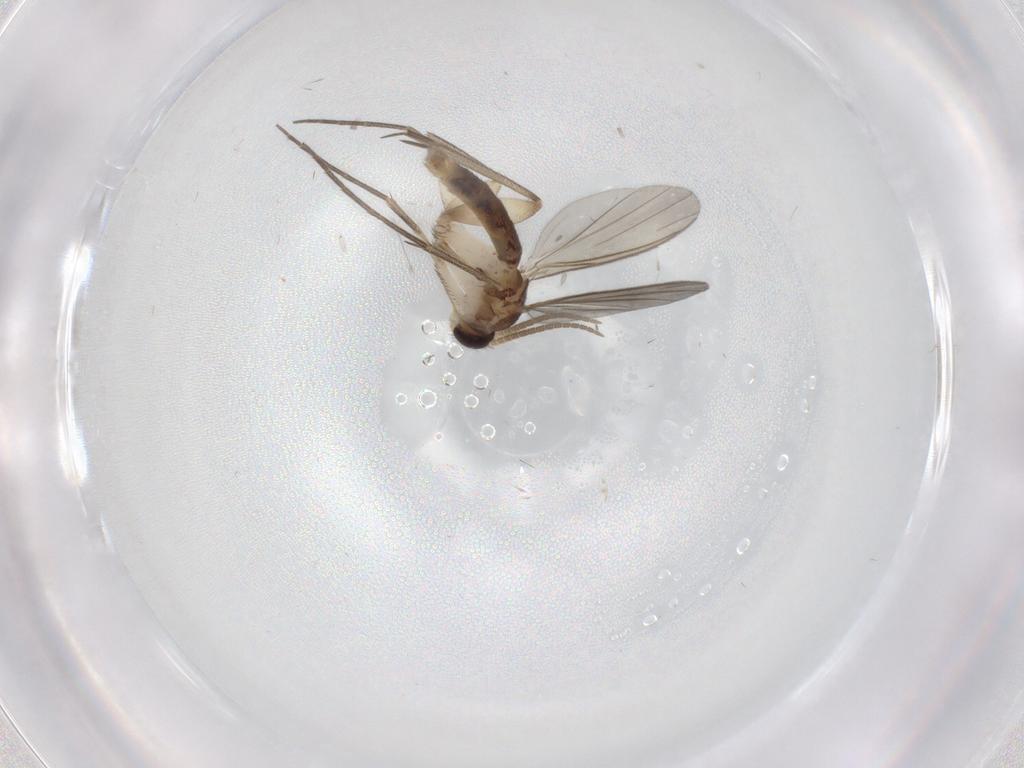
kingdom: Animalia
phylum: Arthropoda
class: Insecta
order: Diptera
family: Mycetophilidae
